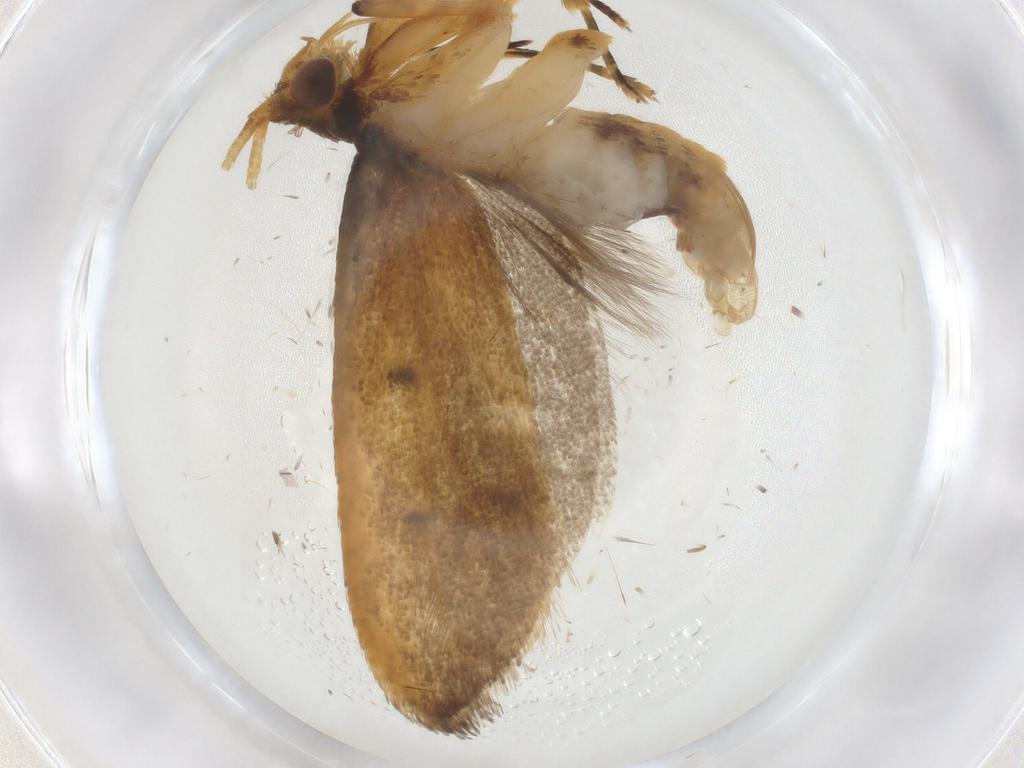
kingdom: Animalia
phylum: Arthropoda
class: Insecta
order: Lepidoptera
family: Lecithoceridae
